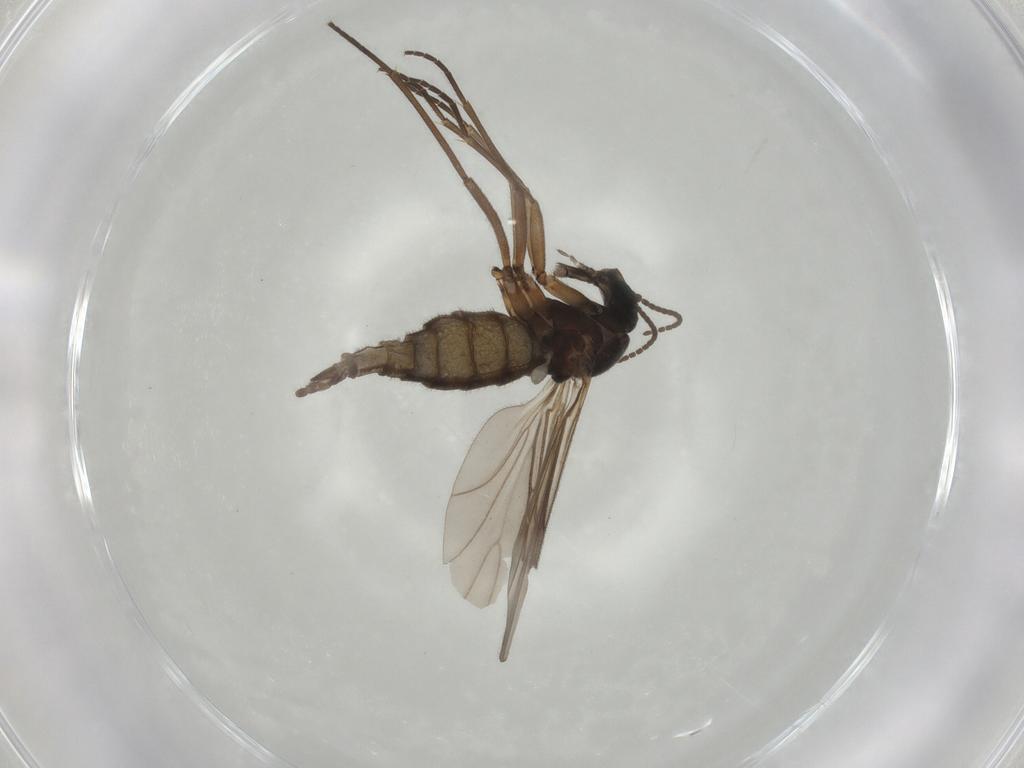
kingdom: Animalia
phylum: Arthropoda
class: Insecta
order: Diptera
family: Sciaridae
